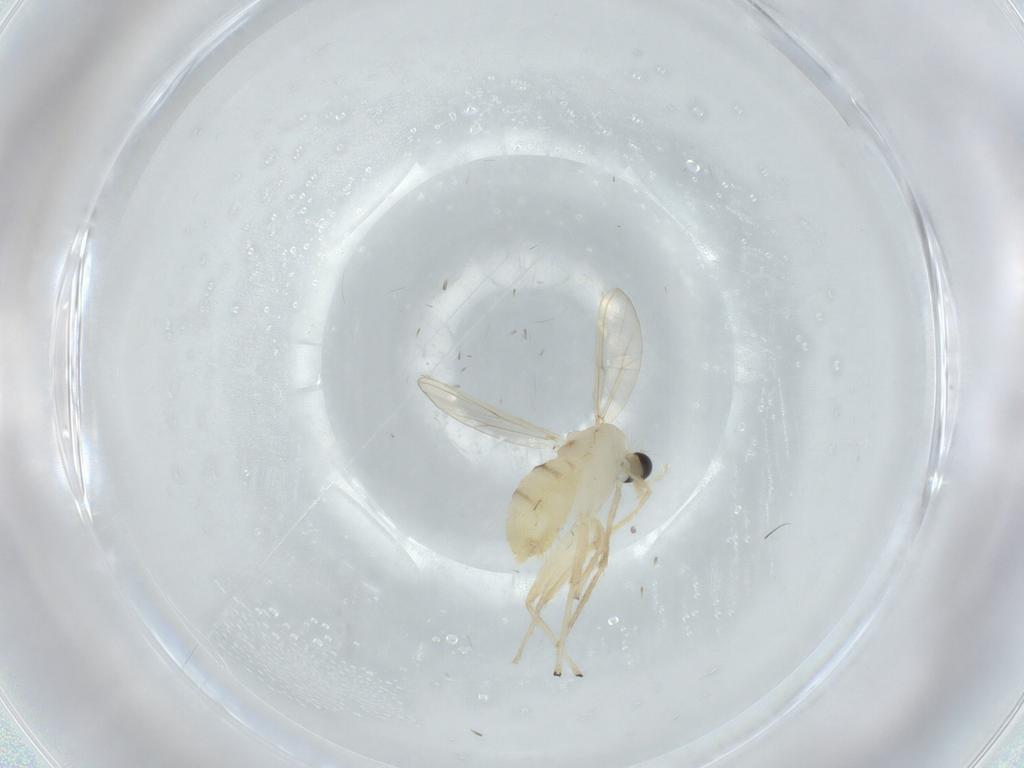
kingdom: Animalia
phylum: Arthropoda
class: Insecta
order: Diptera
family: Chironomidae
